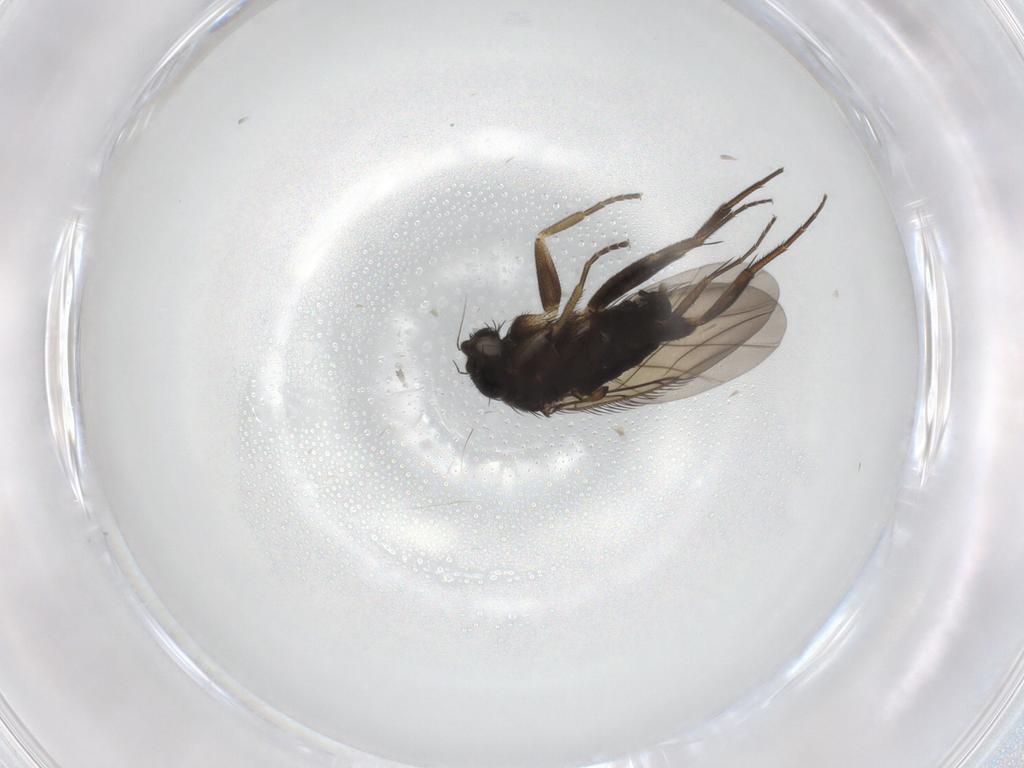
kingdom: Animalia
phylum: Arthropoda
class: Insecta
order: Diptera
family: Phoridae
